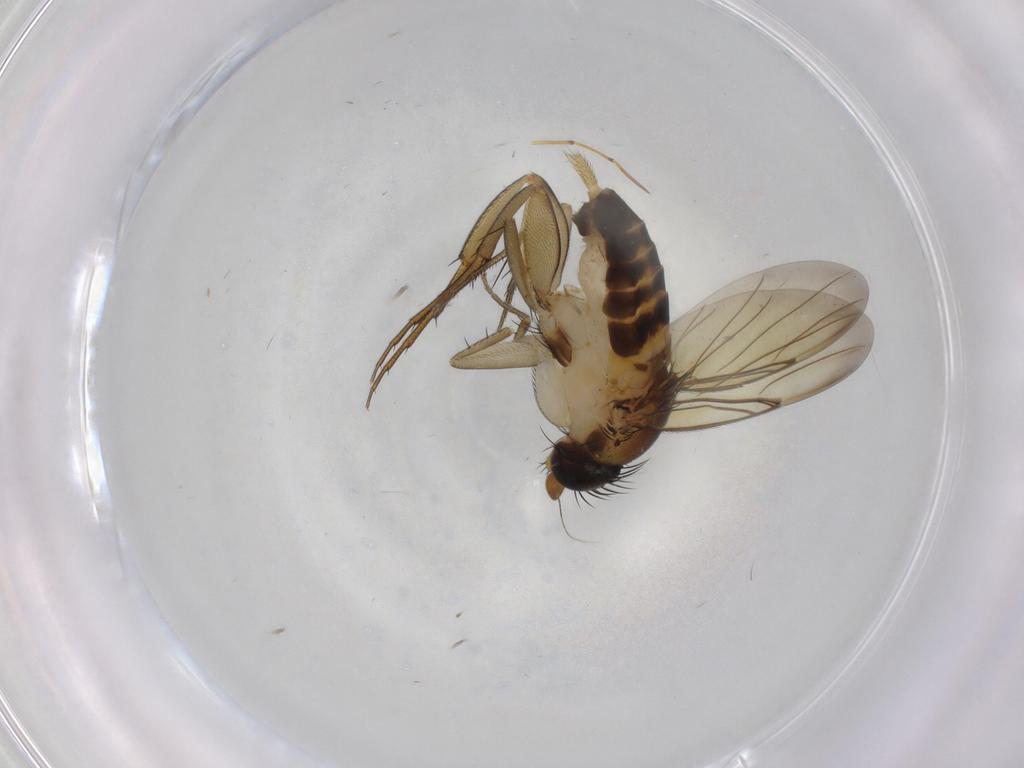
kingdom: Animalia
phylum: Arthropoda
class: Insecta
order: Diptera
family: Phoridae
